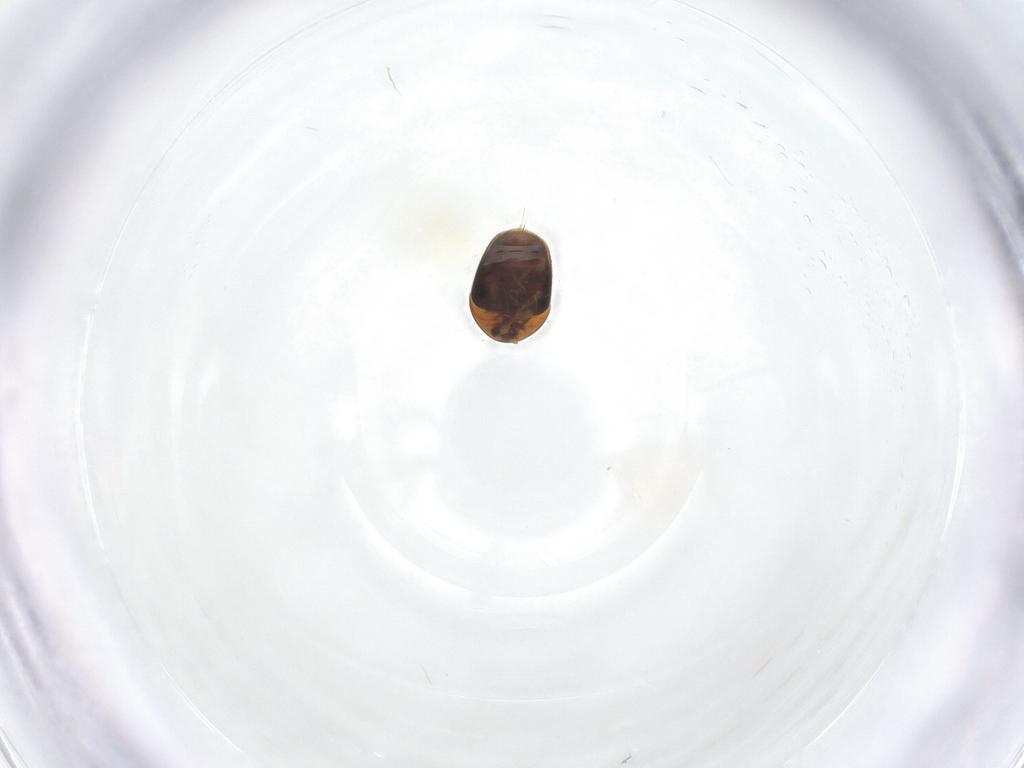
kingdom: Animalia
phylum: Arthropoda
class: Insecta
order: Coleoptera
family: Corylophidae
